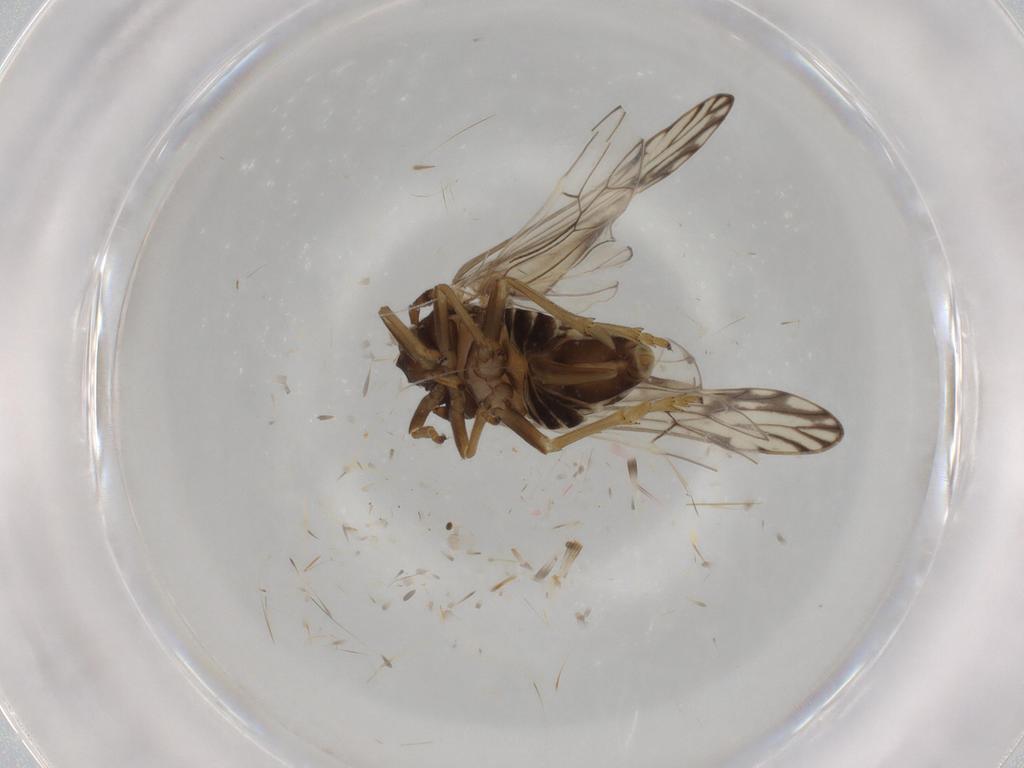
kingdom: Animalia
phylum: Arthropoda
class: Insecta
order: Hemiptera
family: Delphacidae
